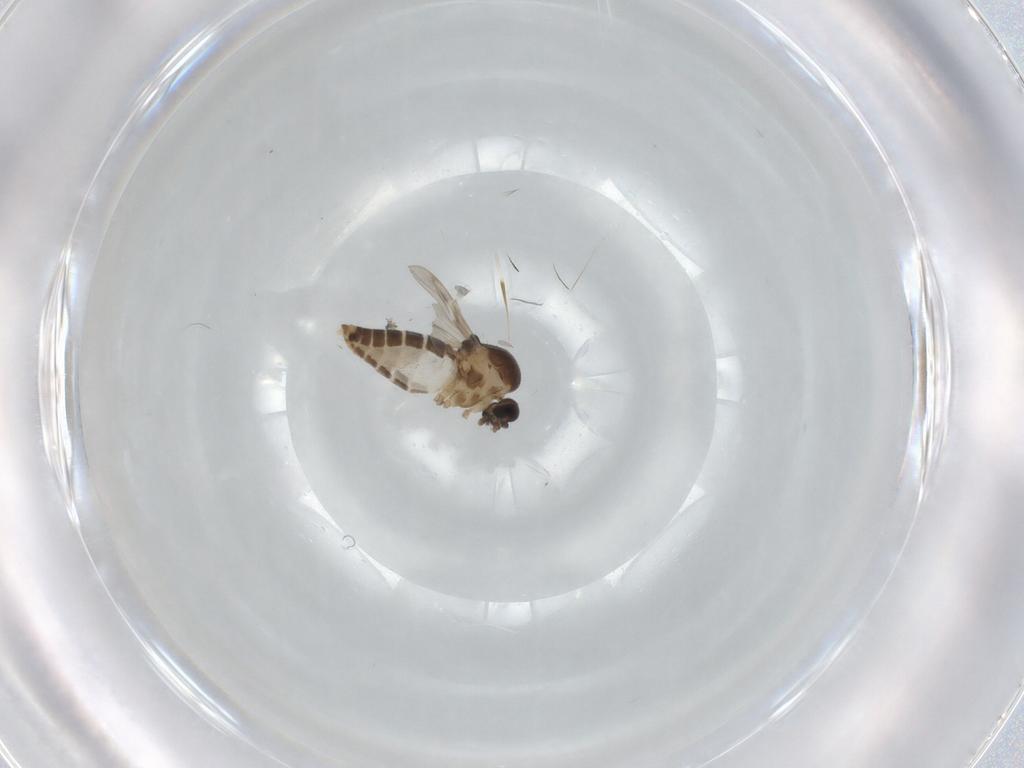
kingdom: Animalia
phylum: Arthropoda
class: Insecta
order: Diptera
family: Ceratopogonidae
